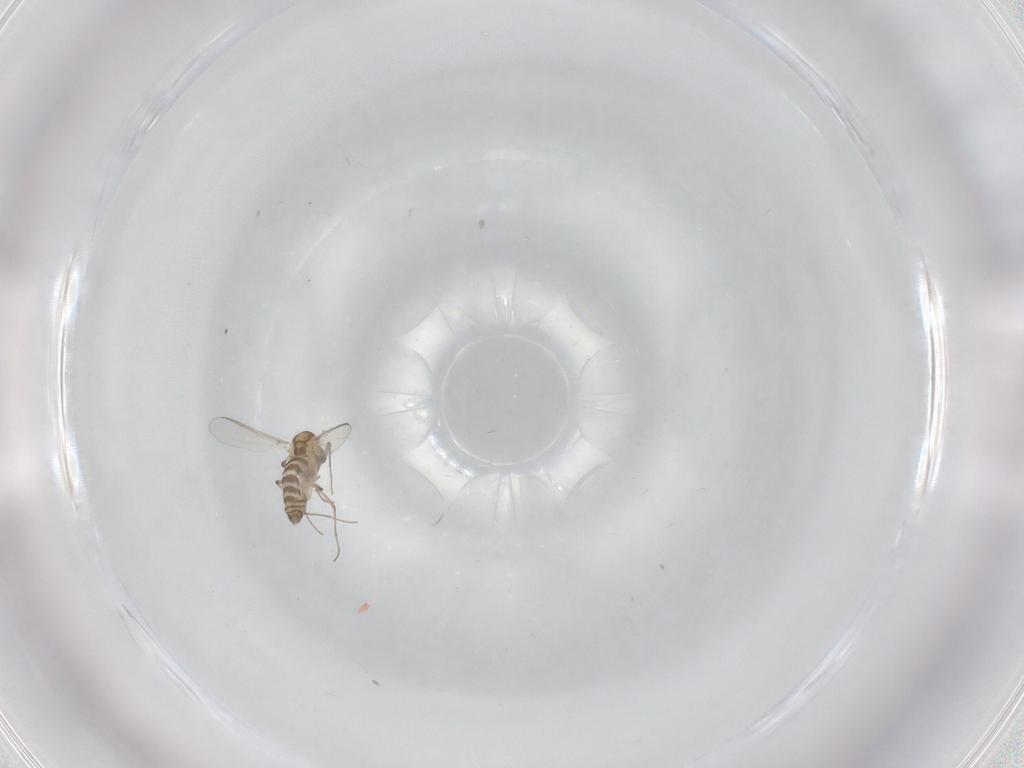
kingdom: Animalia
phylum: Arthropoda
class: Insecta
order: Diptera
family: Chironomidae
